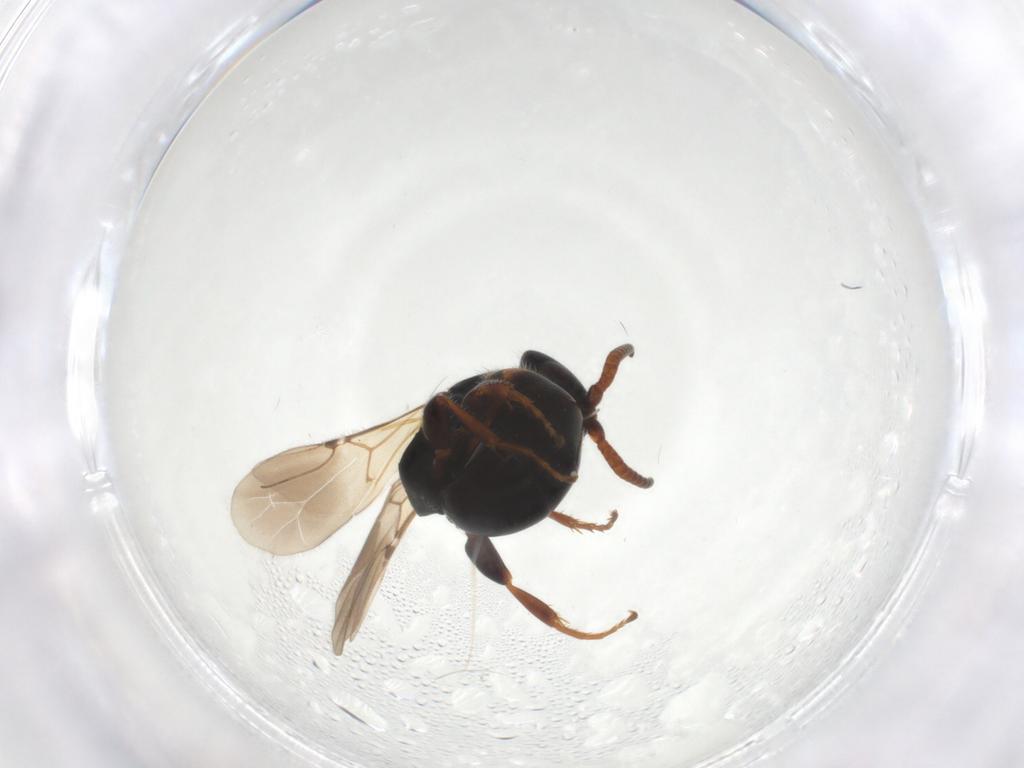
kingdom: Animalia
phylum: Arthropoda
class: Insecta
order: Hymenoptera
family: Bethylidae
